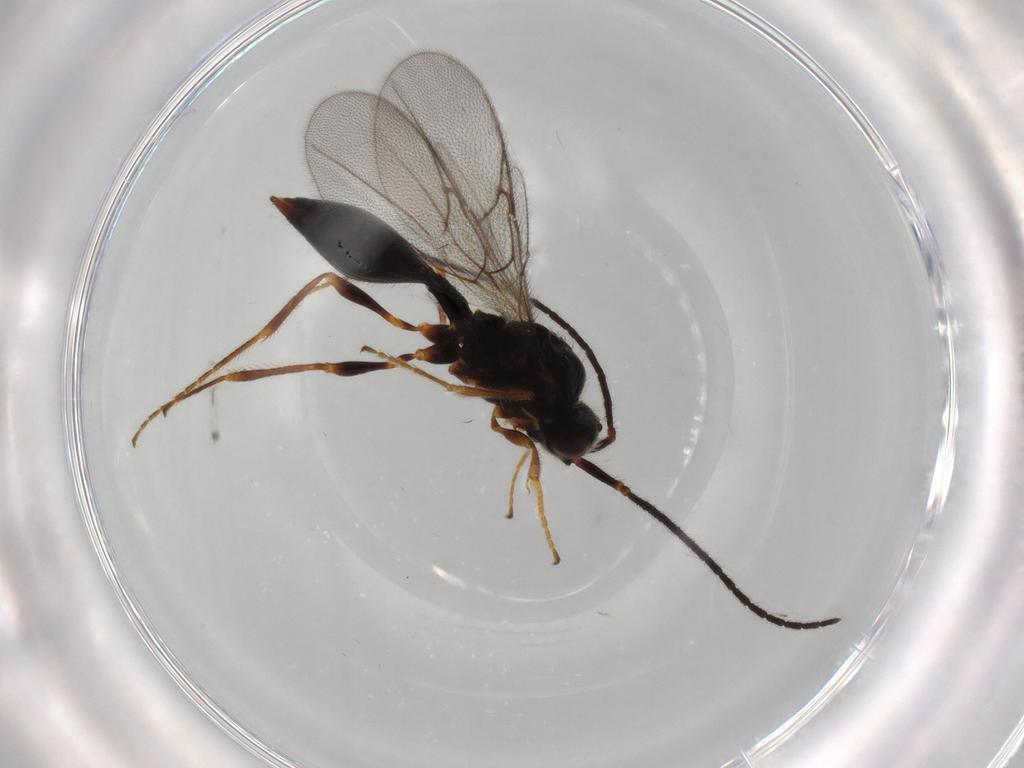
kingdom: Animalia
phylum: Arthropoda
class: Insecta
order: Hymenoptera
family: Diapriidae
